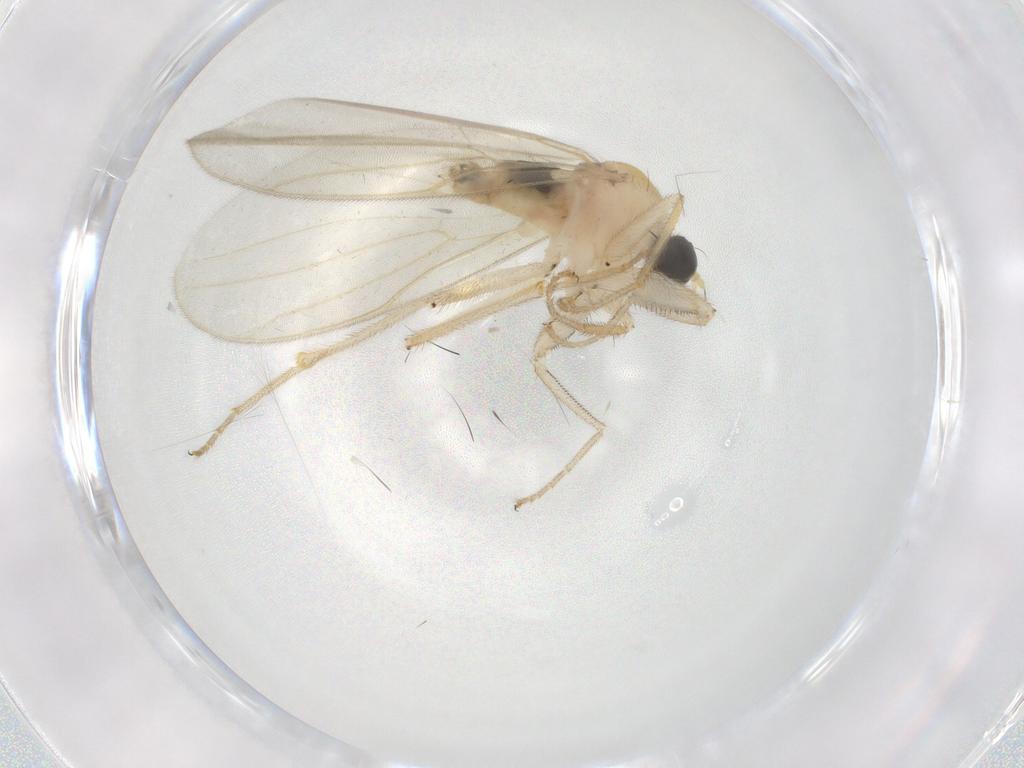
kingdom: Animalia
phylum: Arthropoda
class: Insecta
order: Diptera
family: Hybotidae
